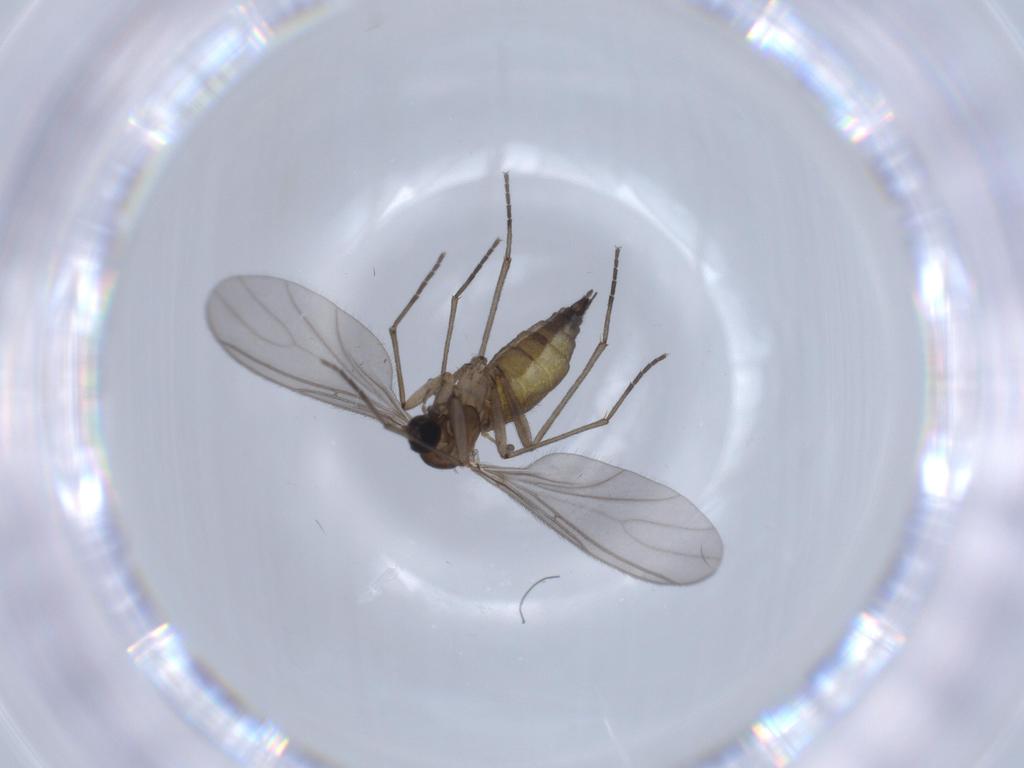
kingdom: Animalia
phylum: Arthropoda
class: Insecta
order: Diptera
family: Sciaridae
